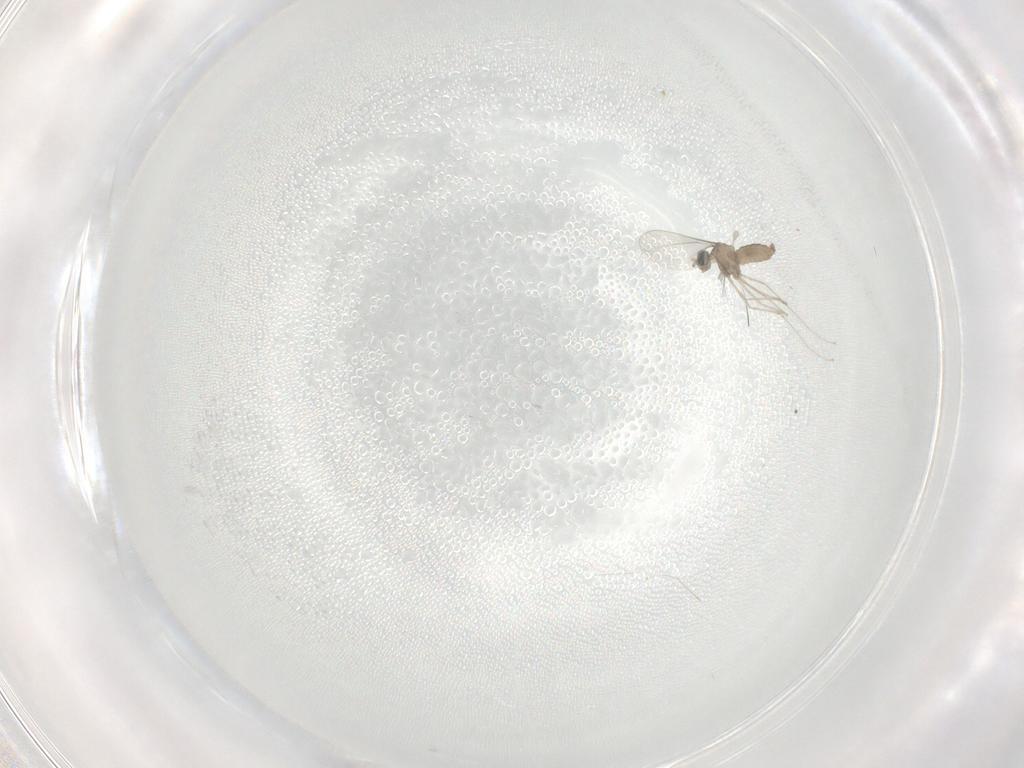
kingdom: Animalia
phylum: Arthropoda
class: Insecta
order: Diptera
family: Cecidomyiidae
